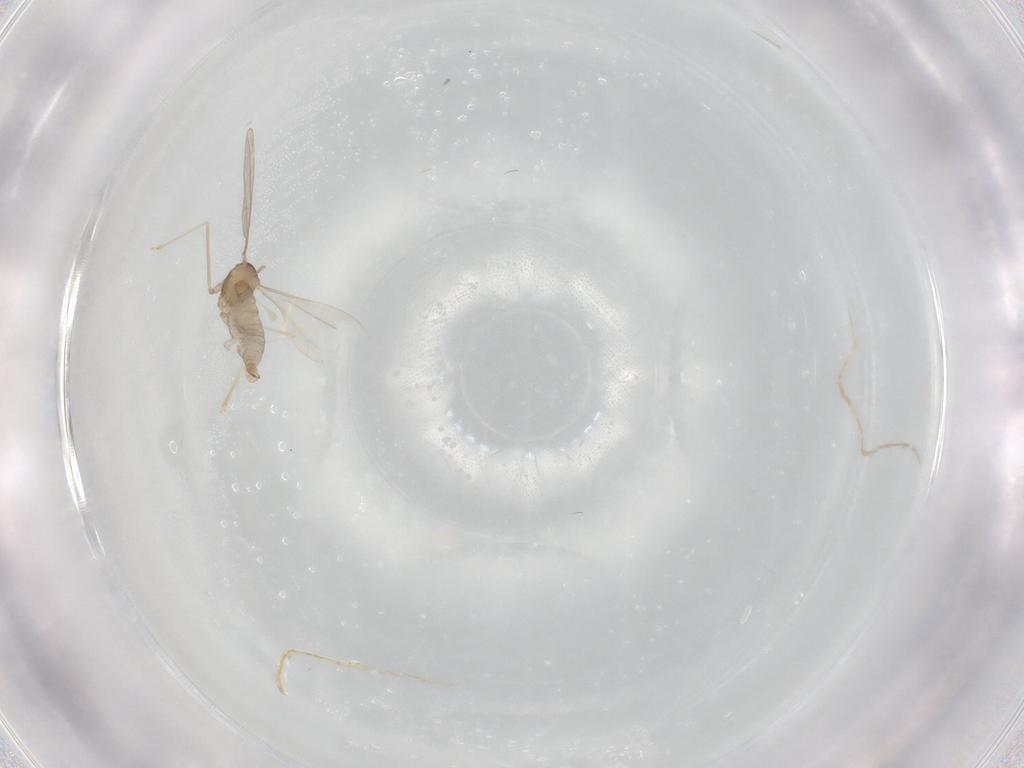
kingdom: Animalia
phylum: Arthropoda
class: Insecta
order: Diptera
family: Cecidomyiidae
